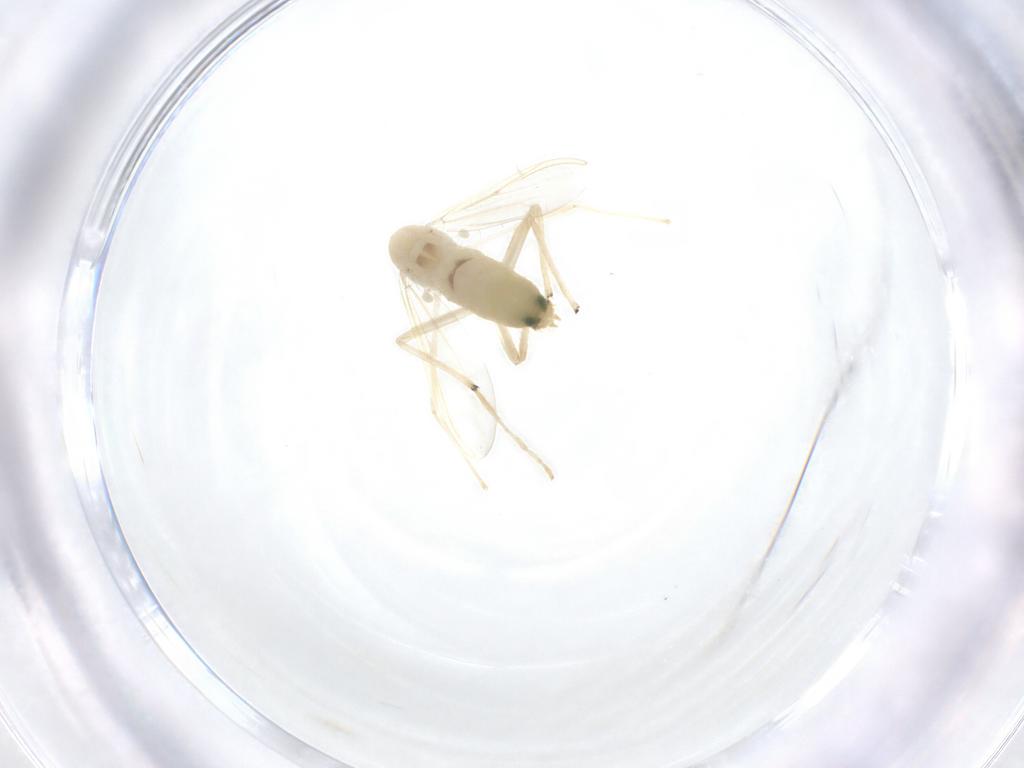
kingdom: Animalia
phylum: Arthropoda
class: Insecta
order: Diptera
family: Chironomidae
